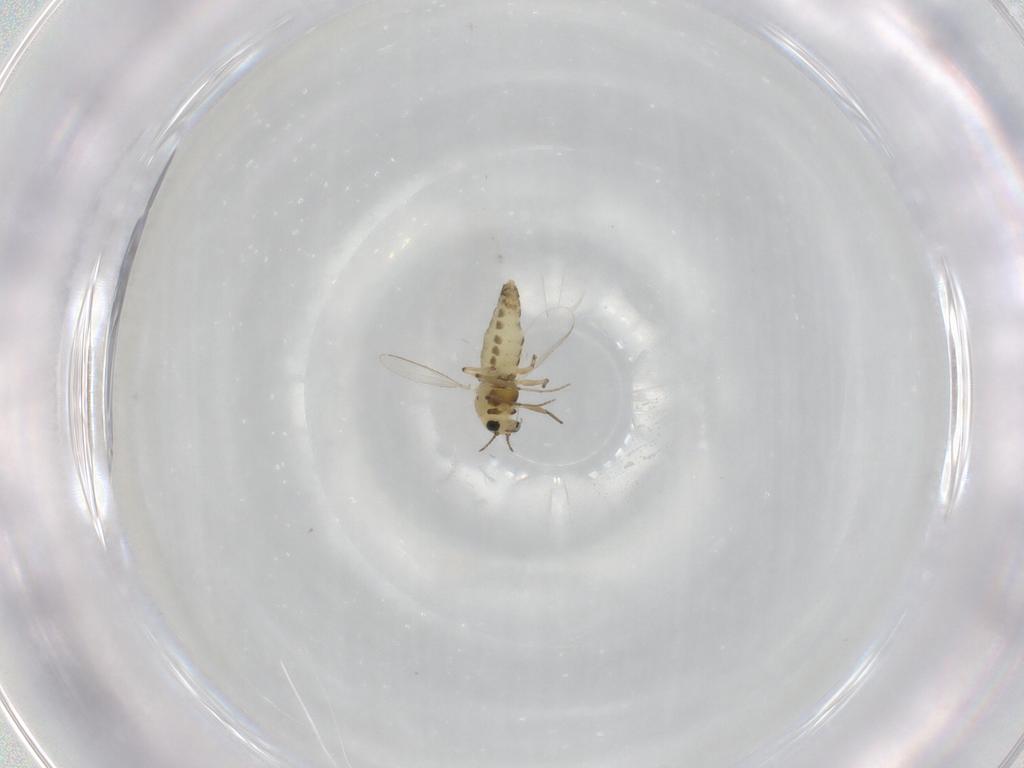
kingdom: Animalia
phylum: Arthropoda
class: Insecta
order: Diptera
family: Chironomidae
